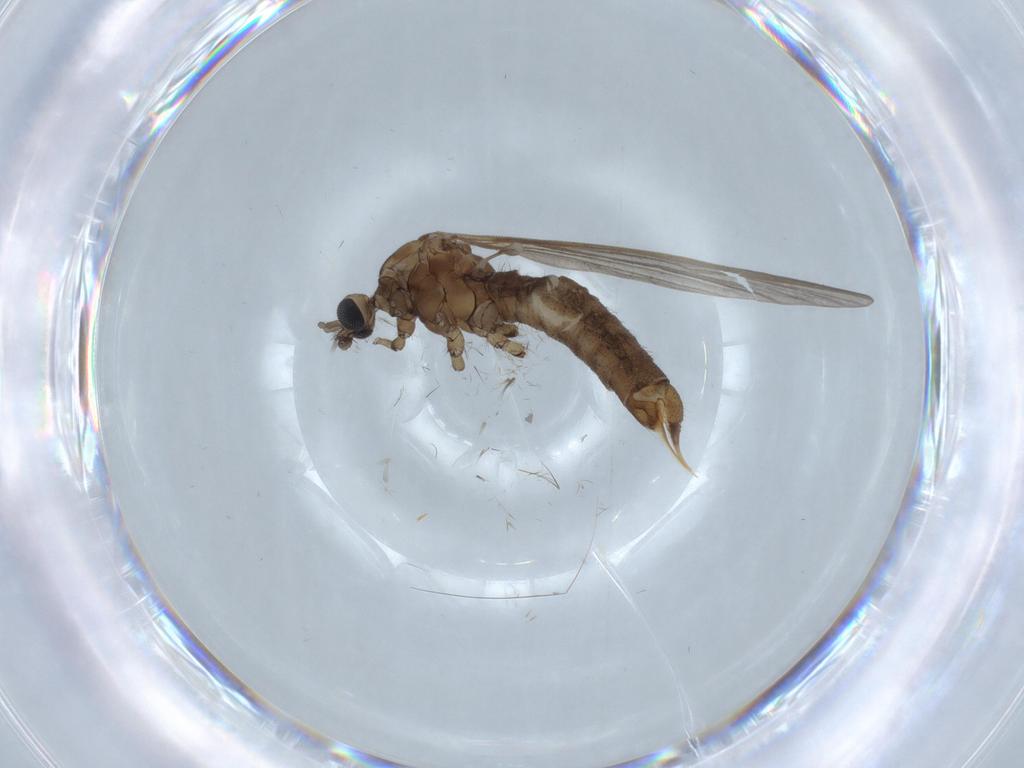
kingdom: Animalia
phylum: Arthropoda
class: Insecta
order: Diptera
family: Limoniidae
